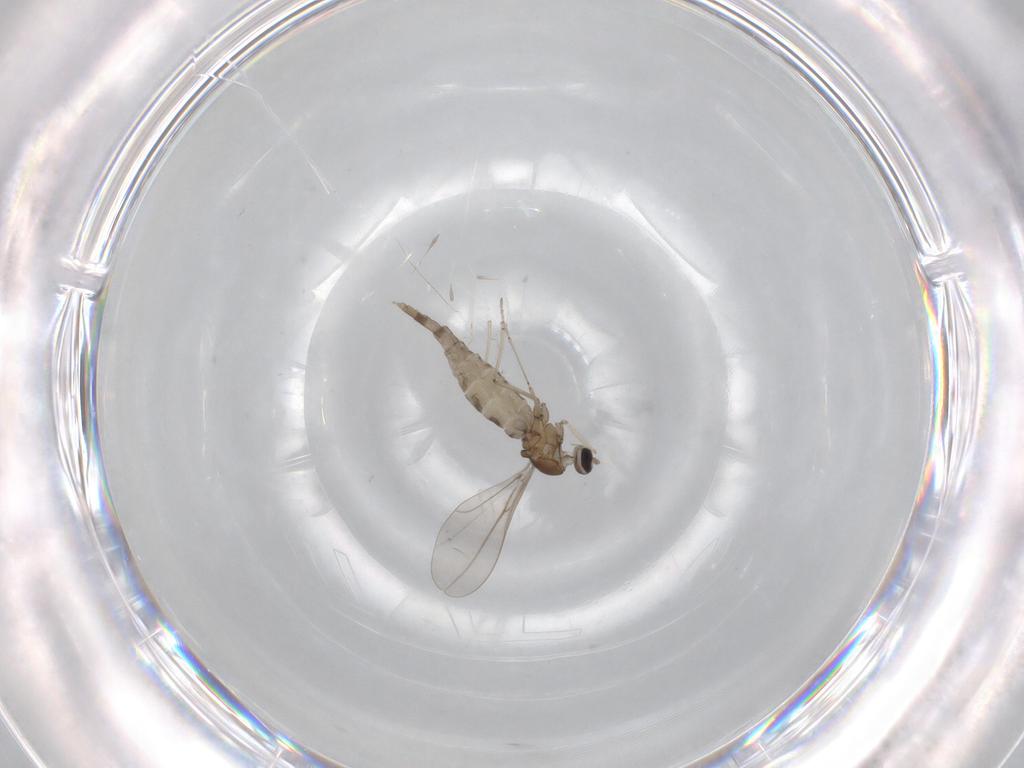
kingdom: Animalia
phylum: Arthropoda
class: Insecta
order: Diptera
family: Cecidomyiidae
